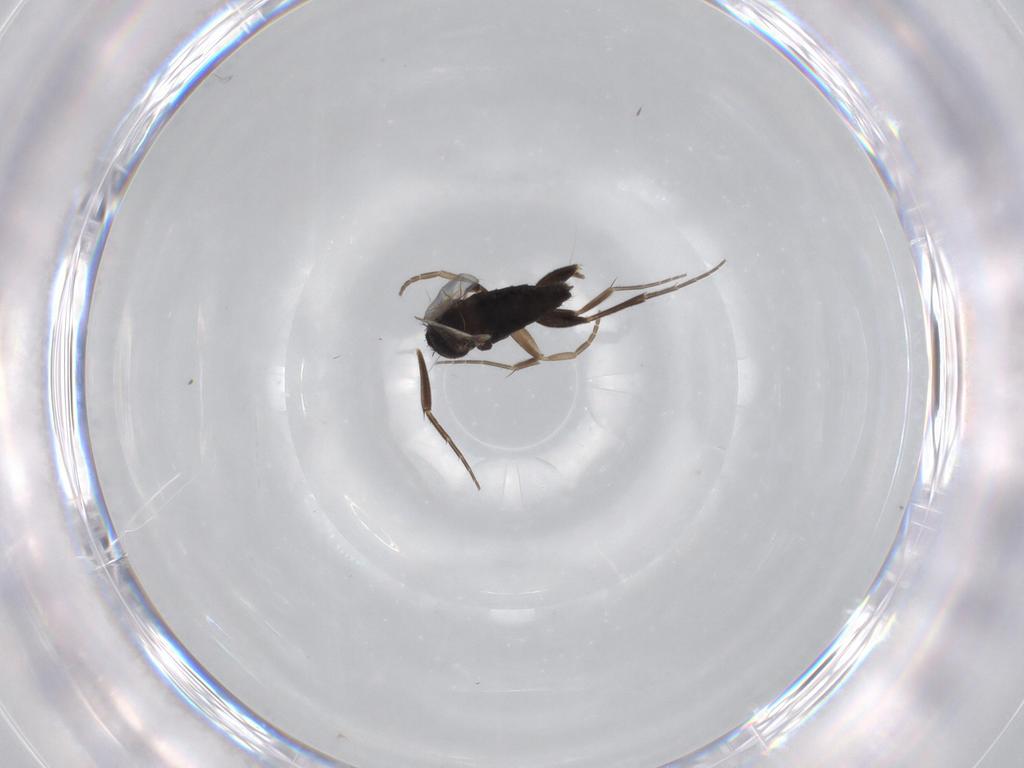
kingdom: Animalia
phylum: Arthropoda
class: Insecta
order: Diptera
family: Phoridae
